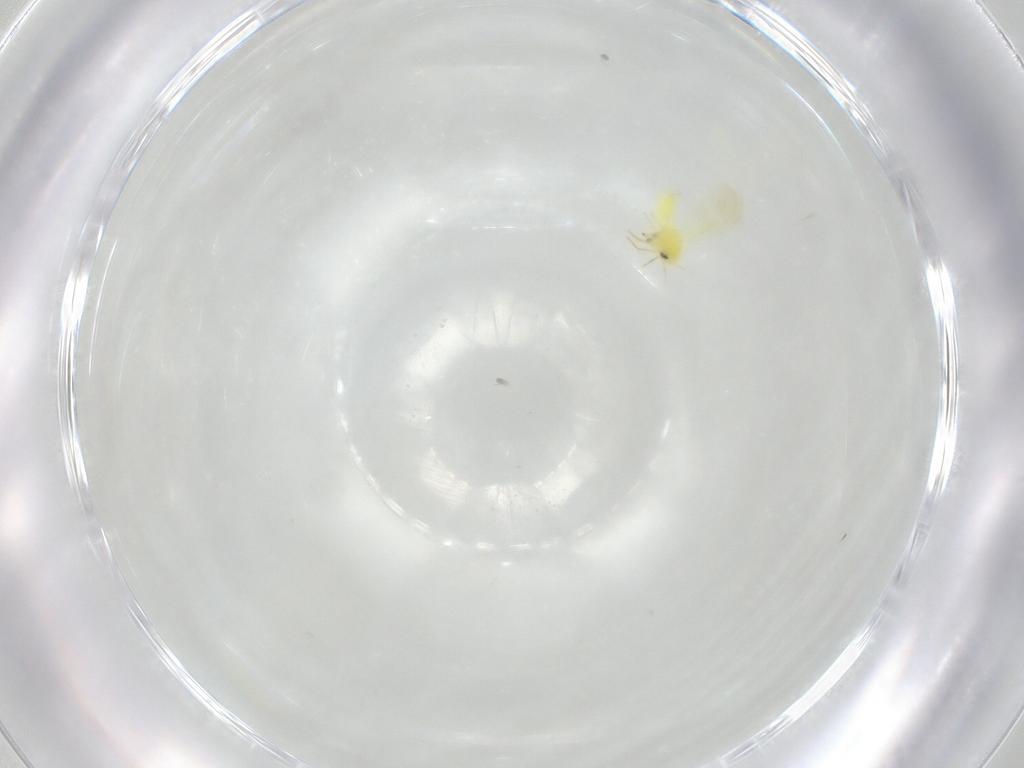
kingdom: Animalia
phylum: Arthropoda
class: Insecta
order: Hemiptera
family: Aleyrodidae
